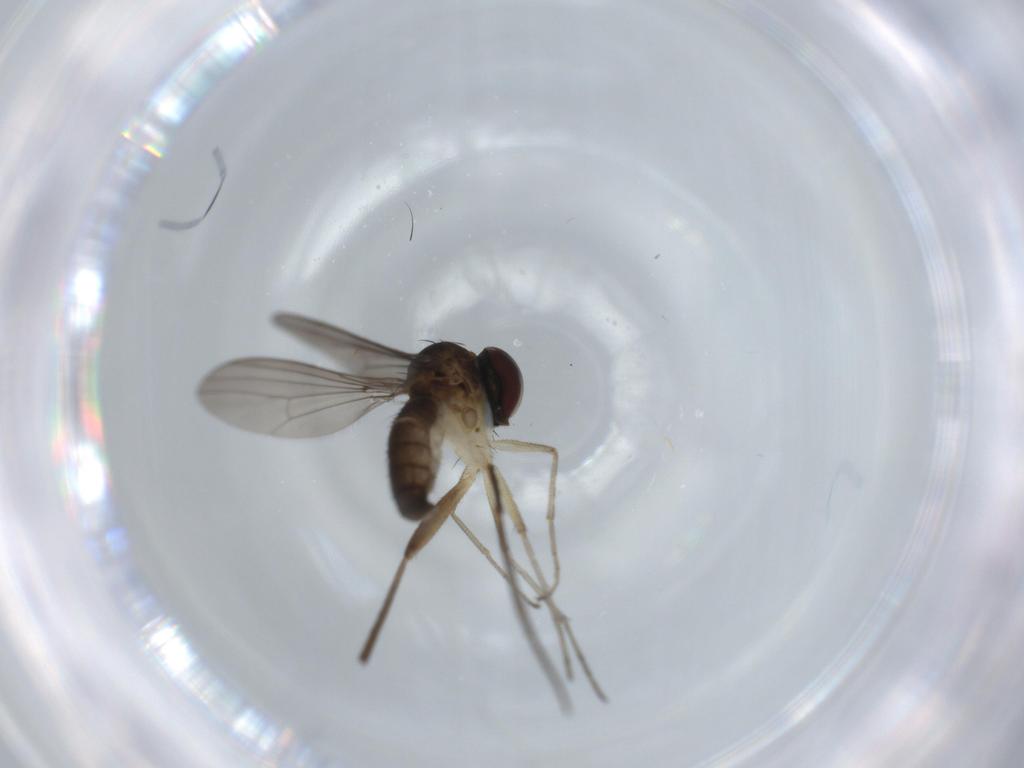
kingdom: Animalia
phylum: Arthropoda
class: Insecta
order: Diptera
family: Dolichopodidae
